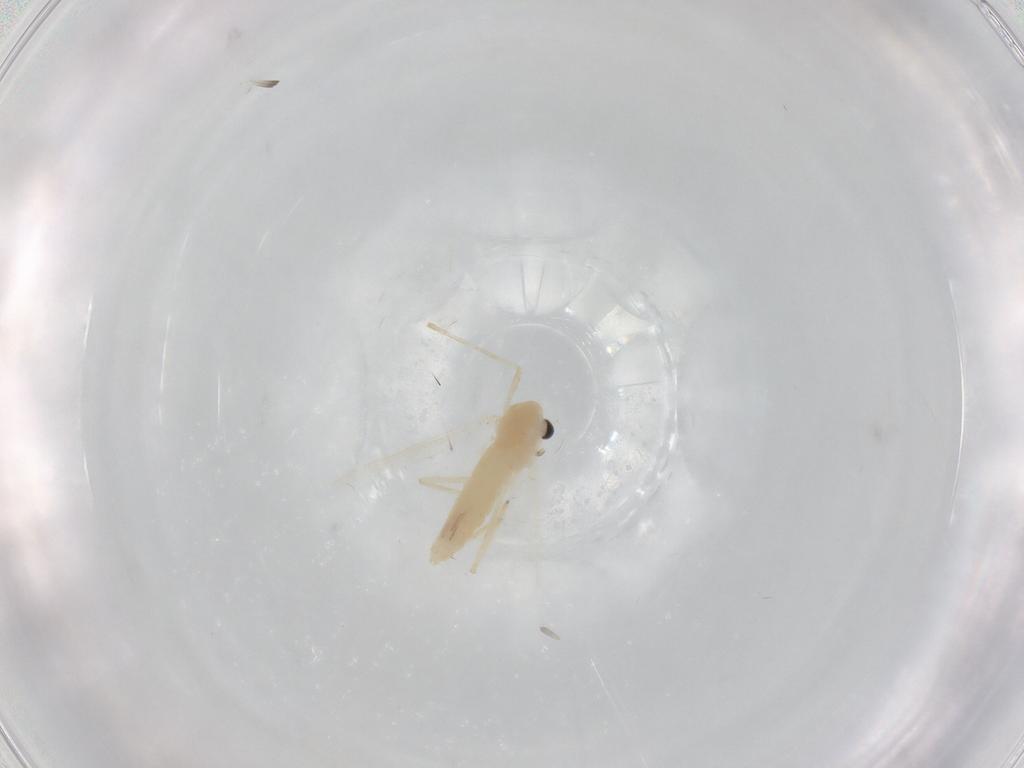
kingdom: Animalia
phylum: Arthropoda
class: Insecta
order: Diptera
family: Chironomidae
